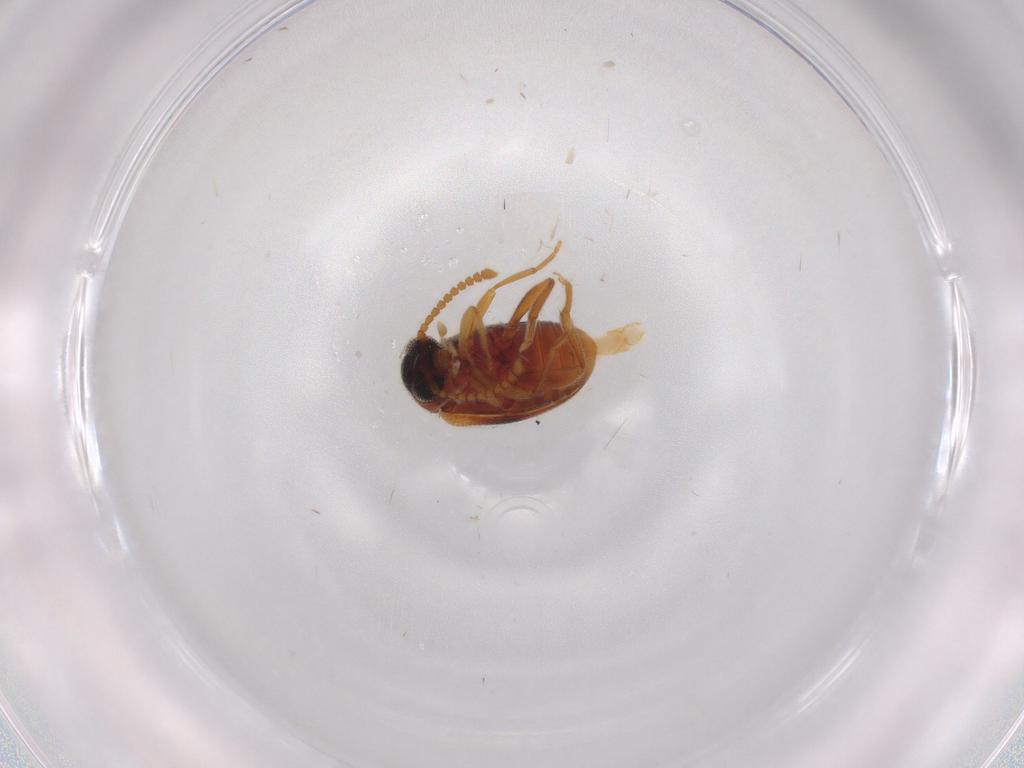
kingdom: Animalia
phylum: Arthropoda
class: Insecta
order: Coleoptera
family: Aderidae
